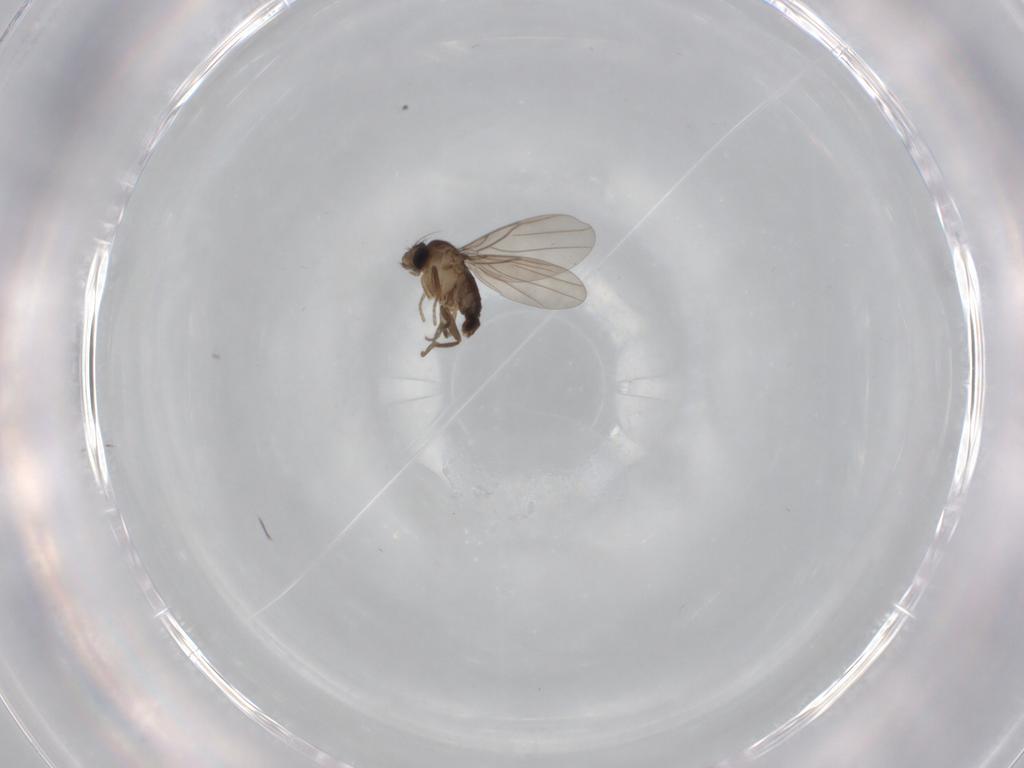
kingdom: Animalia
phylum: Arthropoda
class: Insecta
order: Diptera
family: Phoridae
